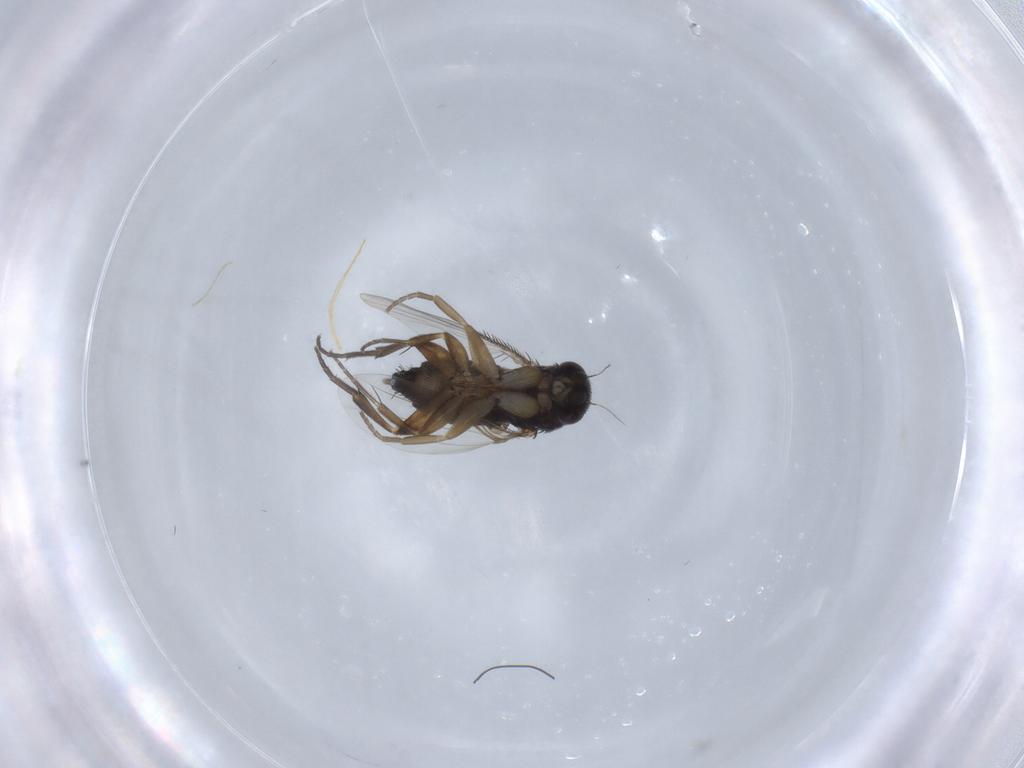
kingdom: Animalia
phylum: Arthropoda
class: Insecta
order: Diptera
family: Phoridae
